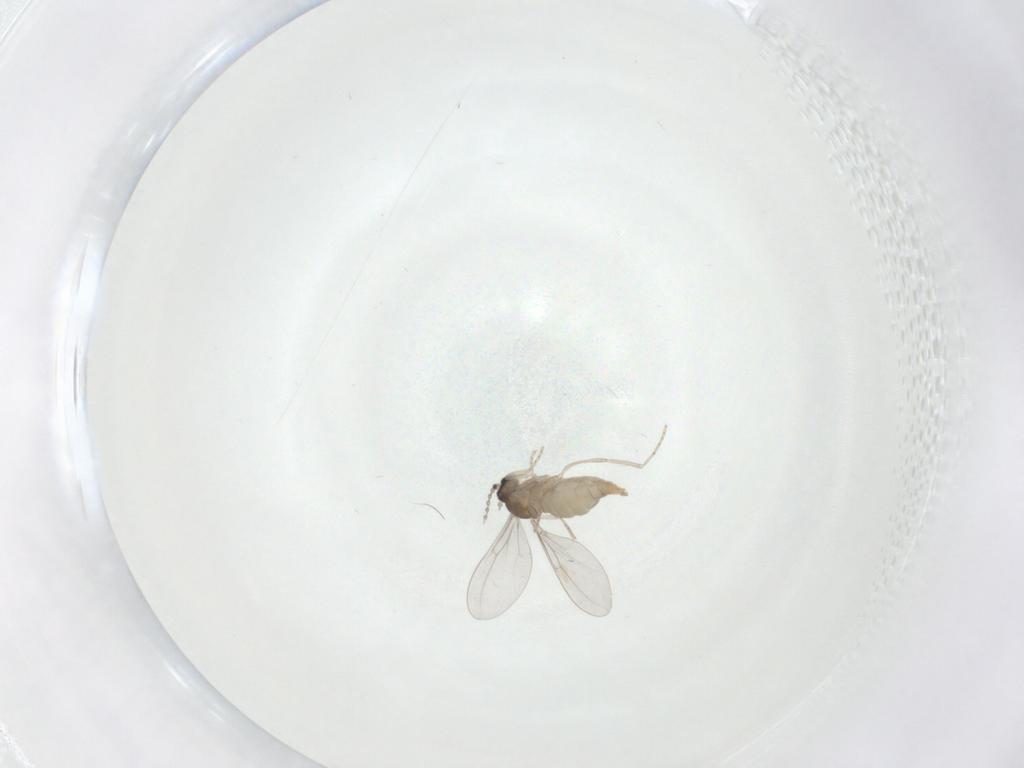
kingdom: Animalia
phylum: Arthropoda
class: Insecta
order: Diptera
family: Cecidomyiidae
